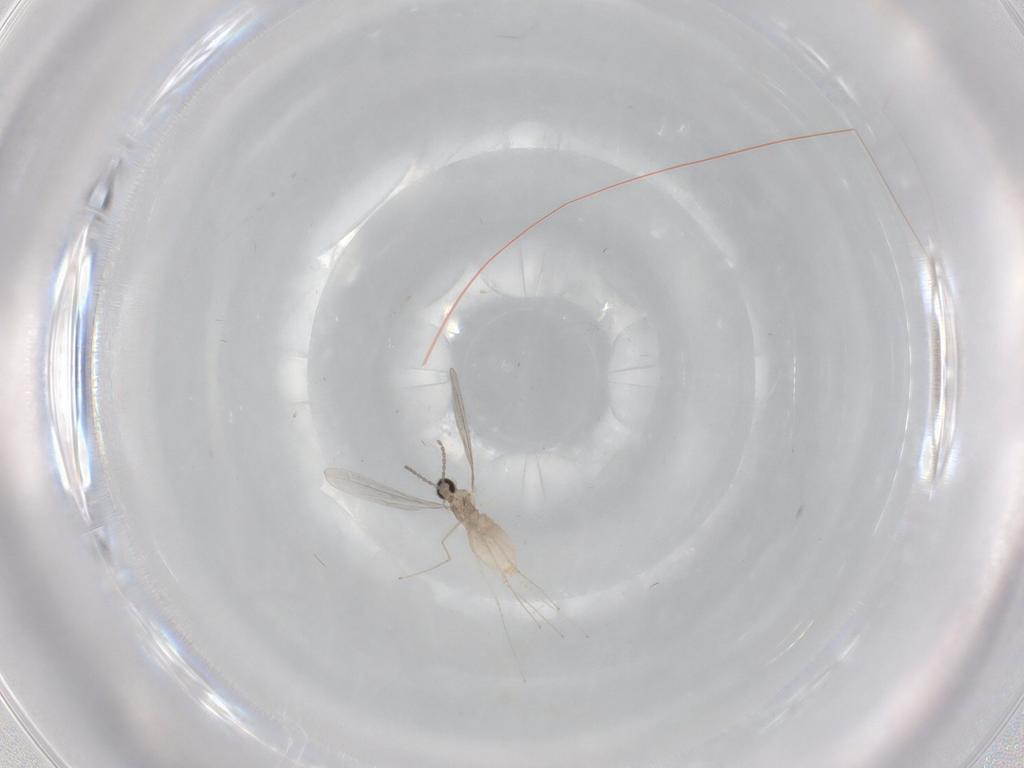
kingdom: Animalia
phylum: Arthropoda
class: Insecta
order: Diptera
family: Cecidomyiidae
